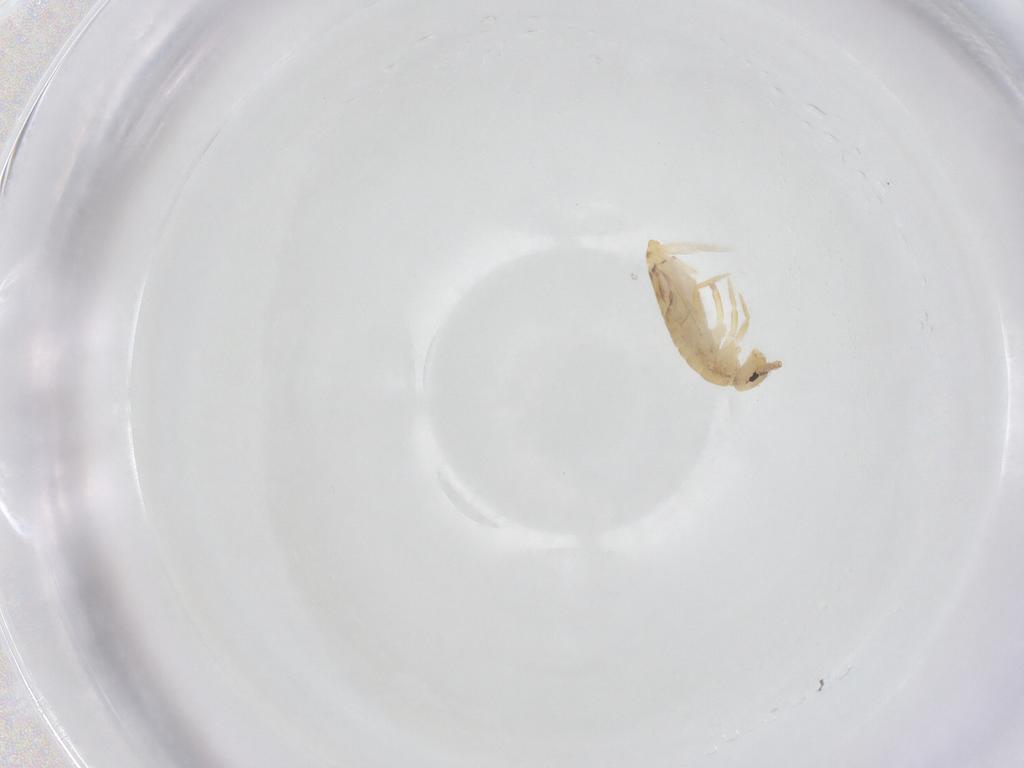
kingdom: Animalia
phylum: Arthropoda
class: Collembola
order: Entomobryomorpha
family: Entomobryidae
